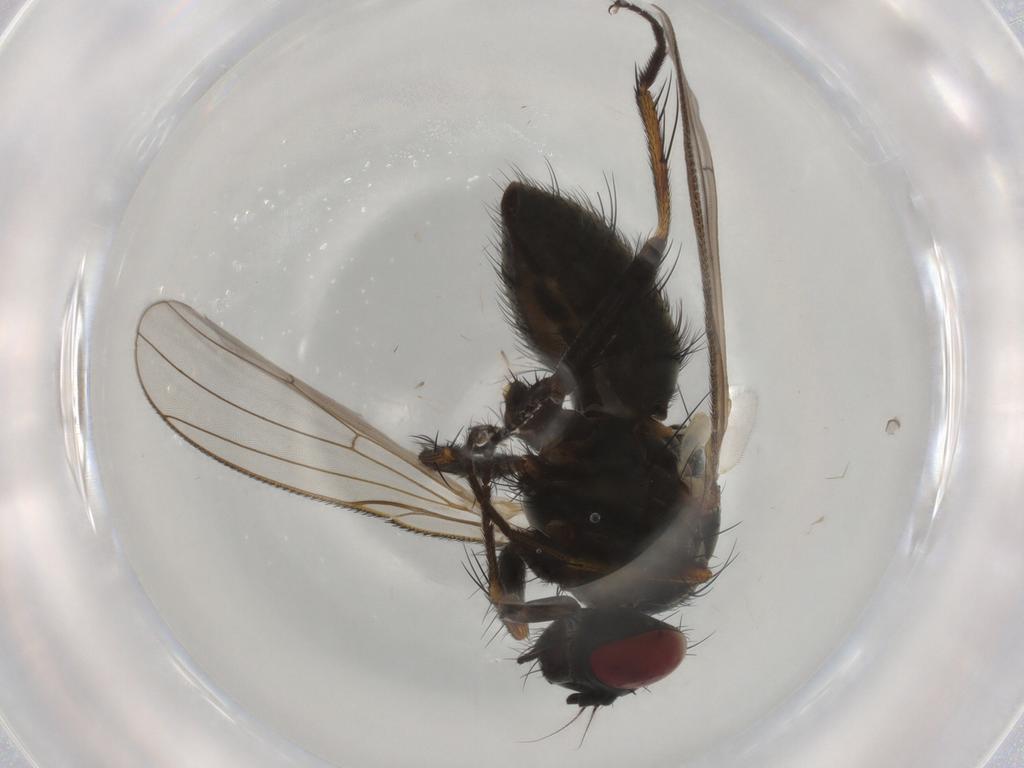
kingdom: Animalia
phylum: Arthropoda
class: Insecta
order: Diptera
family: Muscidae
